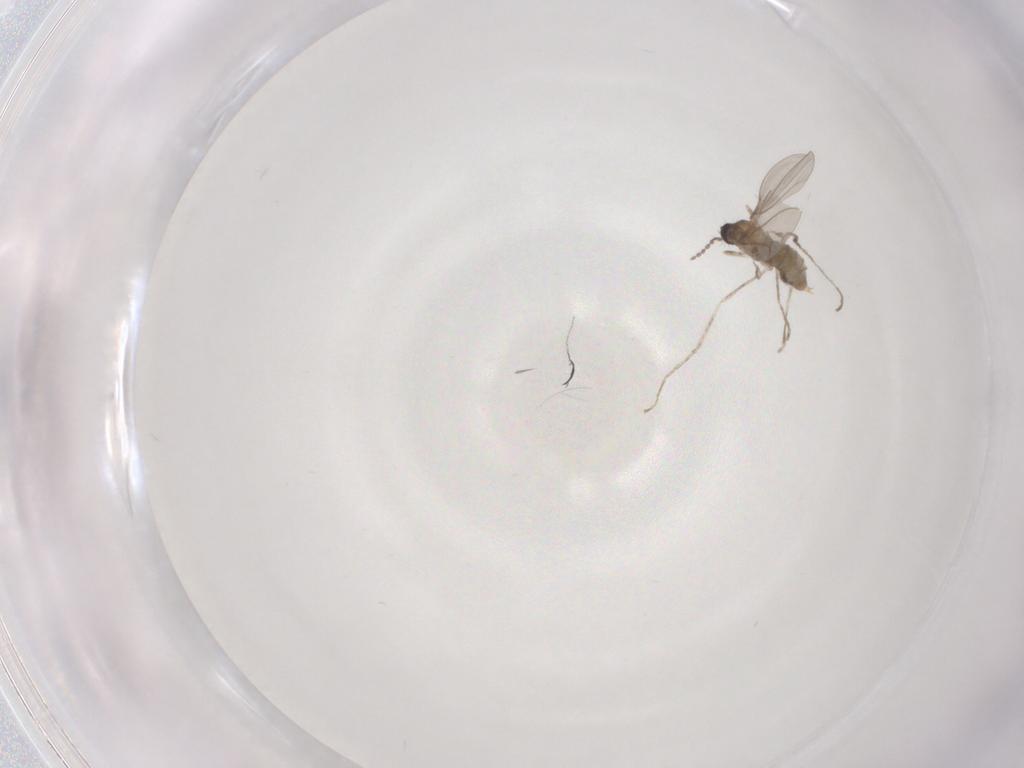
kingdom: Animalia
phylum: Arthropoda
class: Insecta
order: Diptera
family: Cecidomyiidae
